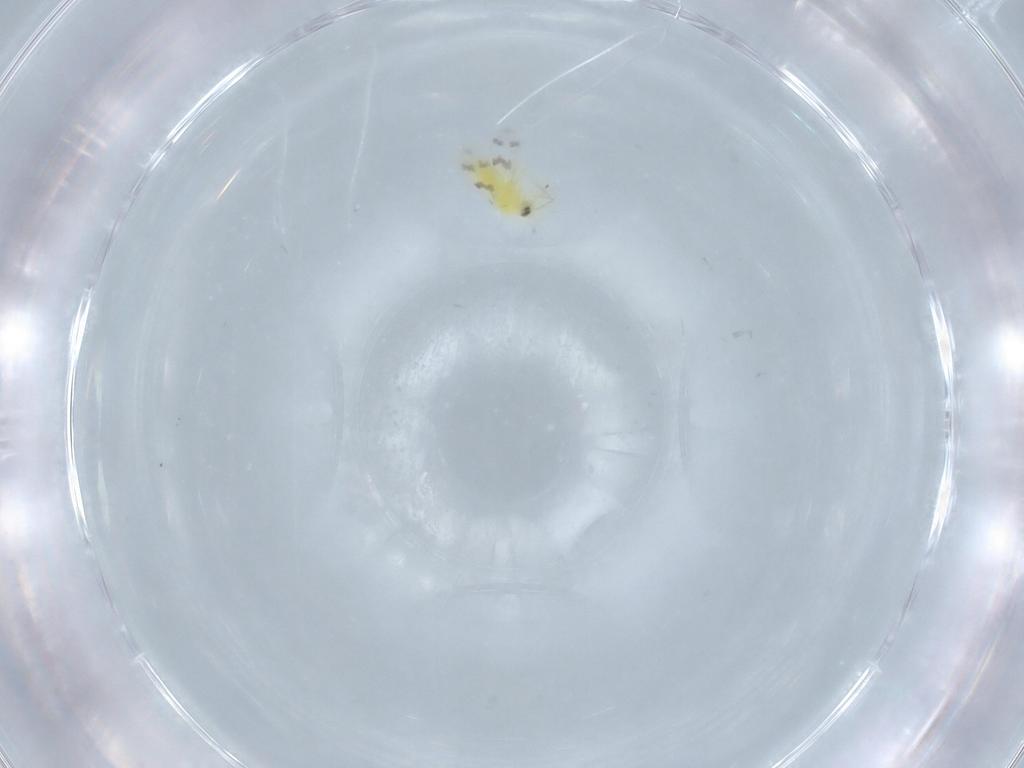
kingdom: Animalia
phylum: Arthropoda
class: Insecta
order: Hemiptera
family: Aleyrodidae
